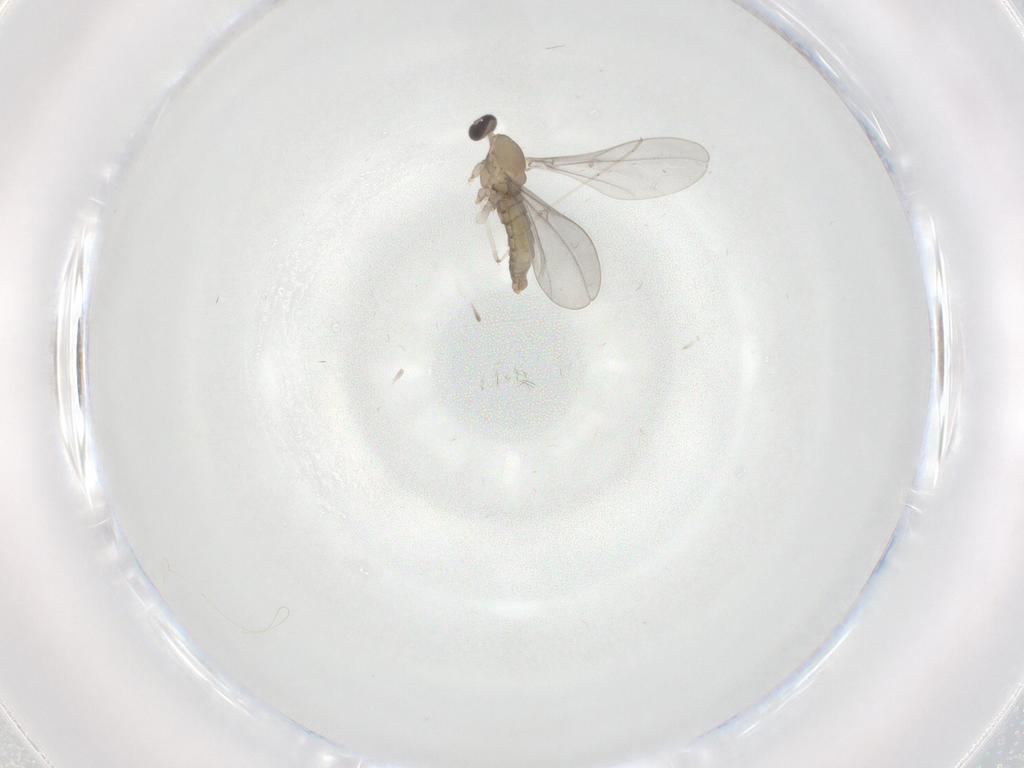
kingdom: Animalia
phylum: Arthropoda
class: Insecta
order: Diptera
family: Cecidomyiidae
